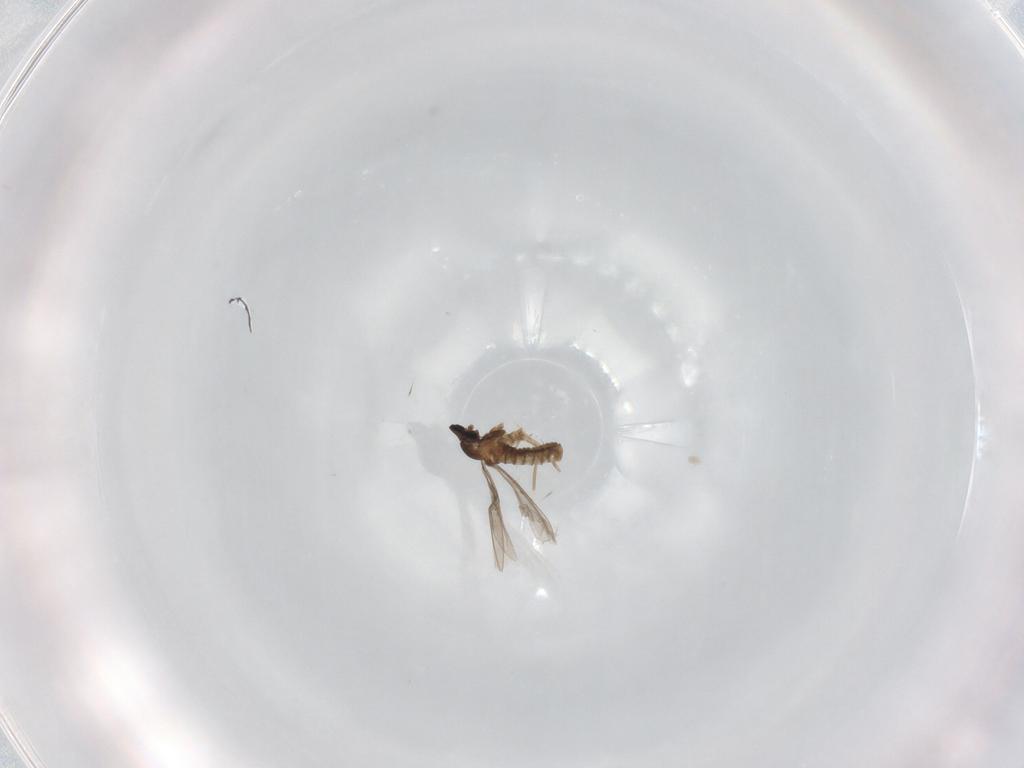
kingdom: Animalia
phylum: Arthropoda
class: Insecta
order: Diptera
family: Cecidomyiidae
